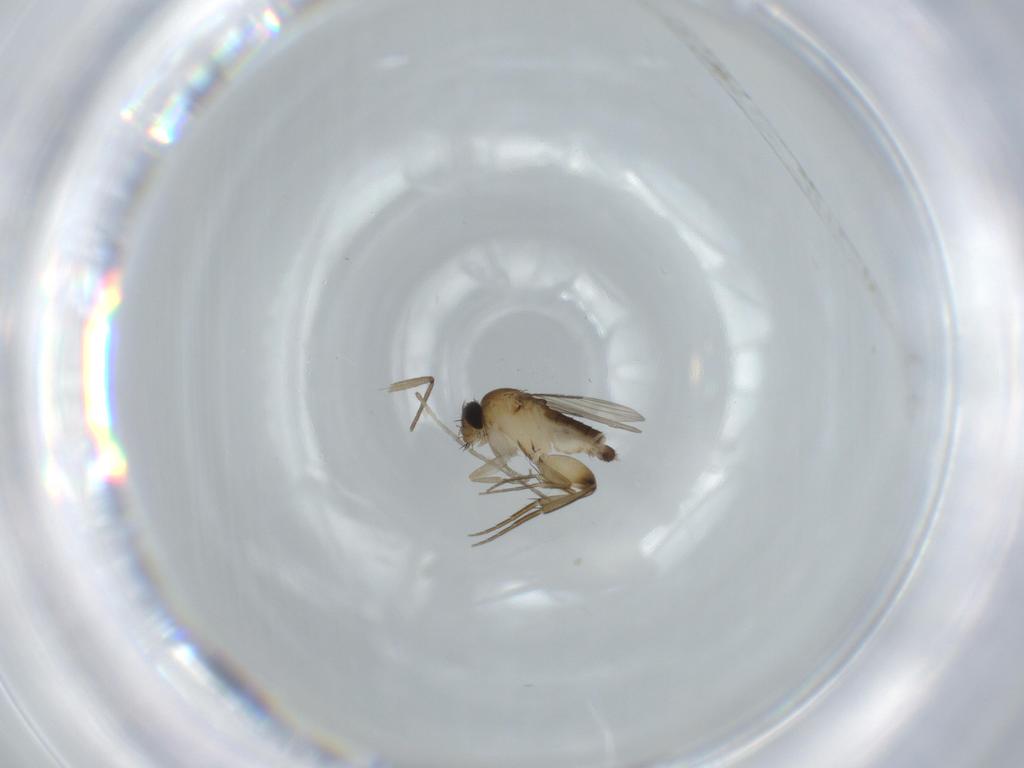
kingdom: Animalia
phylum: Arthropoda
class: Insecta
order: Diptera
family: Phoridae
